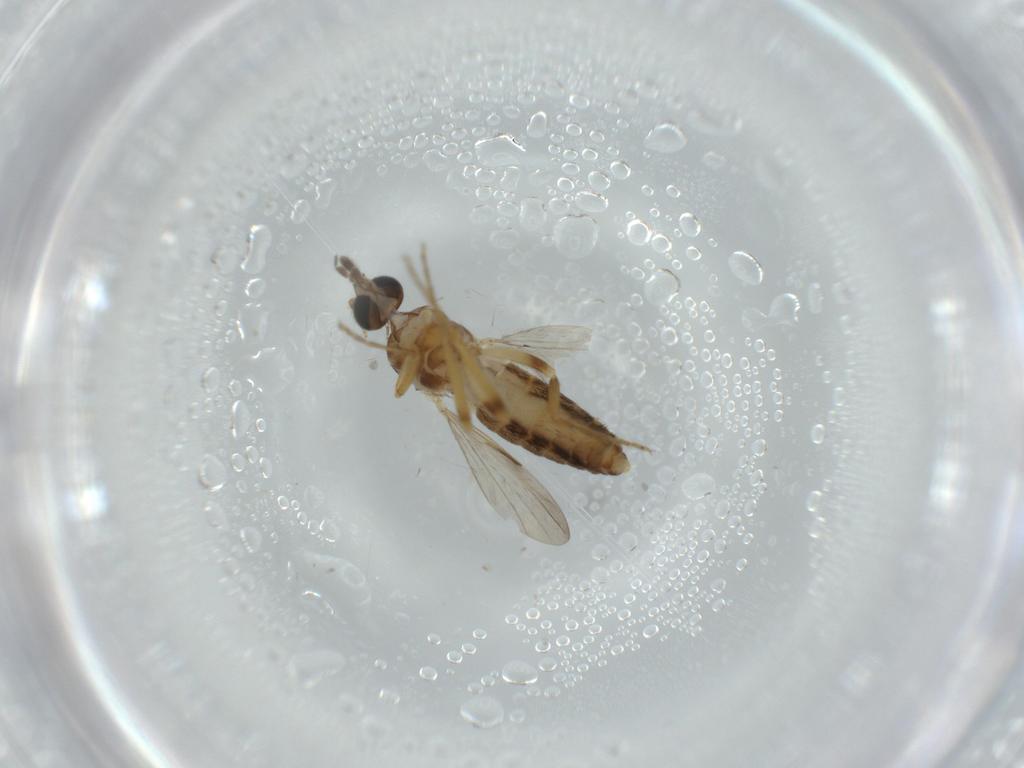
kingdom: Animalia
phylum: Arthropoda
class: Insecta
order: Diptera
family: Ceratopogonidae
